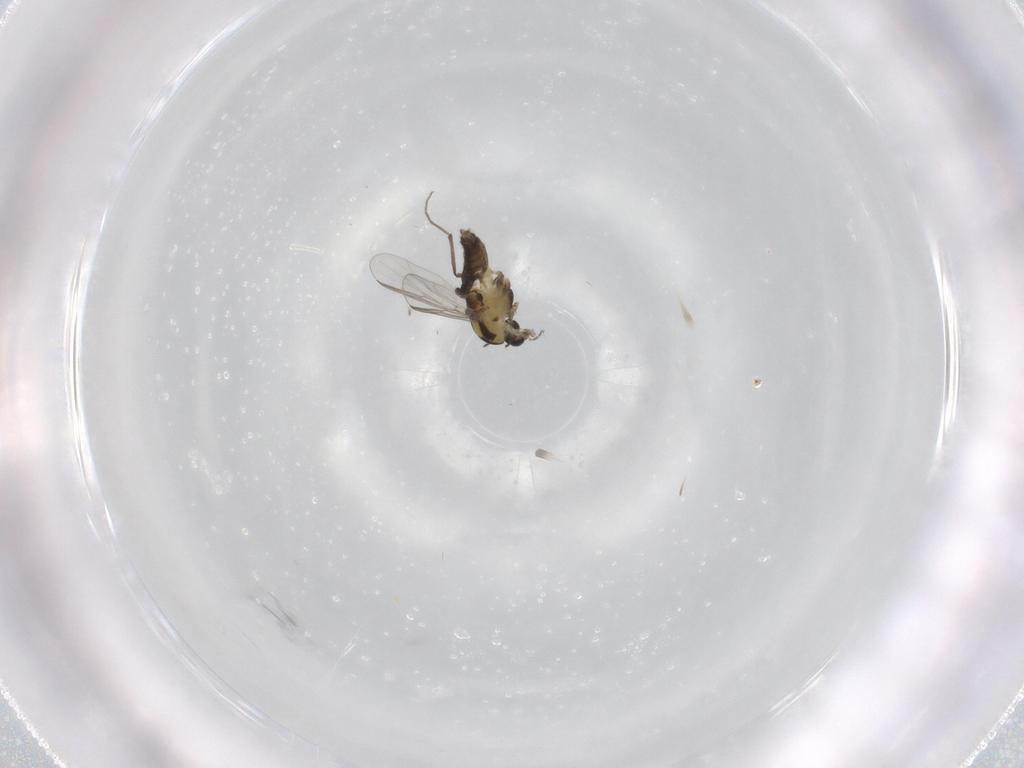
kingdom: Animalia
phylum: Arthropoda
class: Insecta
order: Diptera
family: Chironomidae
